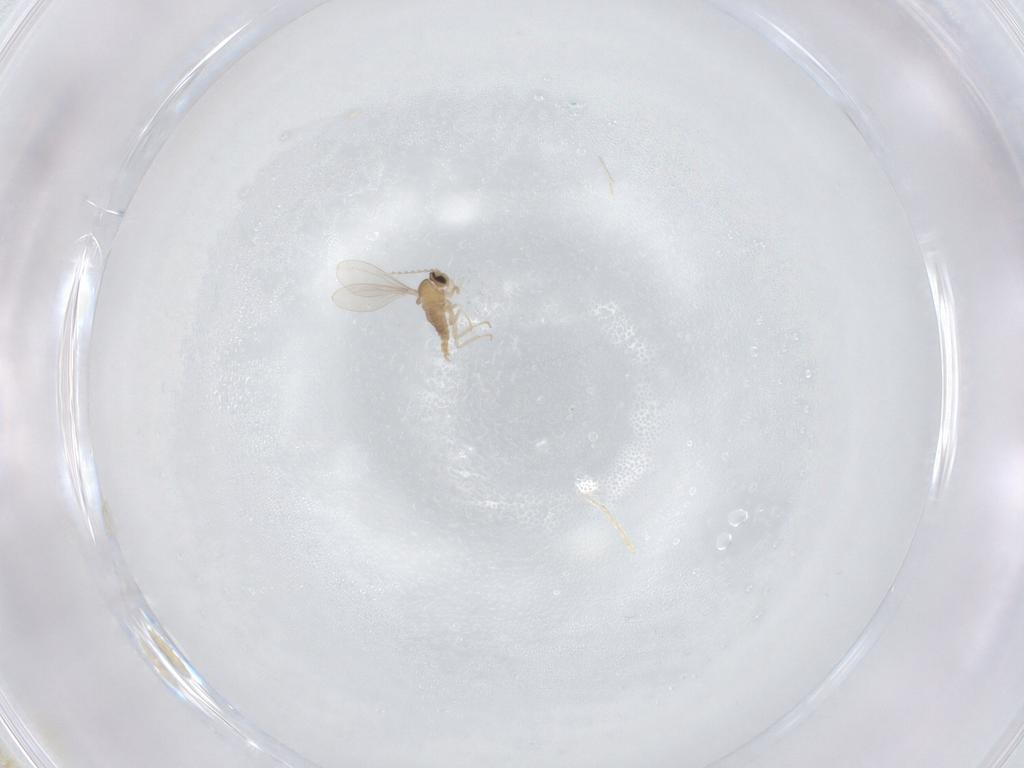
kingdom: Animalia
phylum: Arthropoda
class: Insecta
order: Diptera
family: Cecidomyiidae
